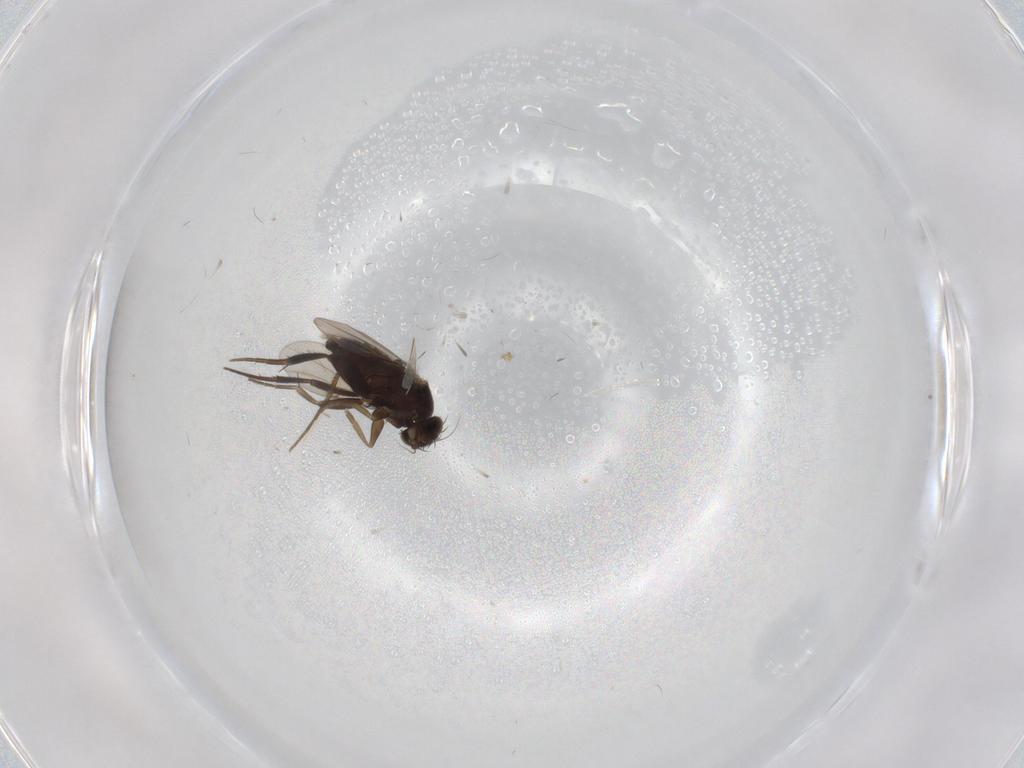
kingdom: Animalia
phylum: Arthropoda
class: Insecta
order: Diptera
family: Phoridae
